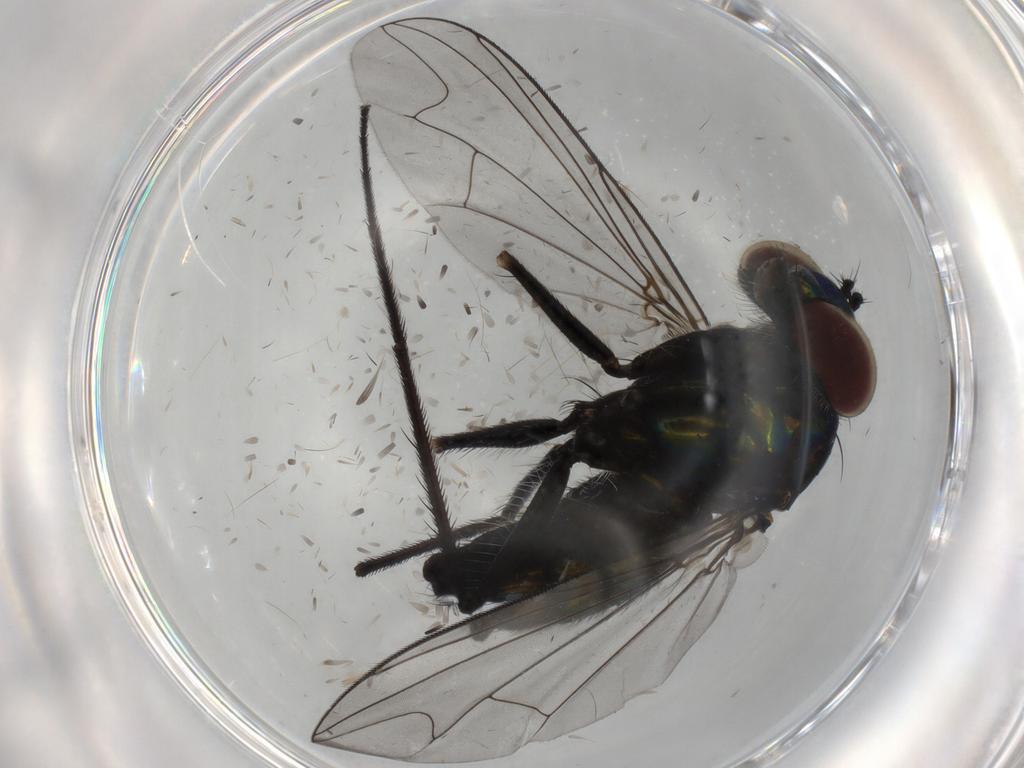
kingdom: Animalia
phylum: Arthropoda
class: Insecta
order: Diptera
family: Dolichopodidae
